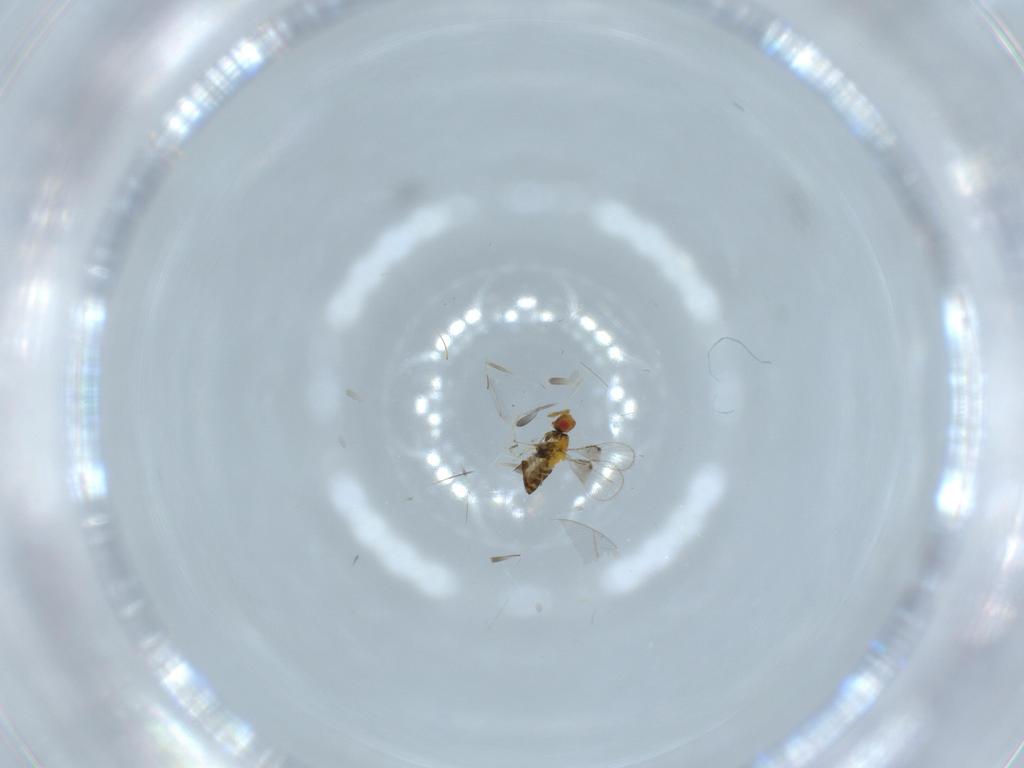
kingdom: Animalia
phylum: Arthropoda
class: Insecta
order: Hymenoptera
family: Trichogrammatidae
